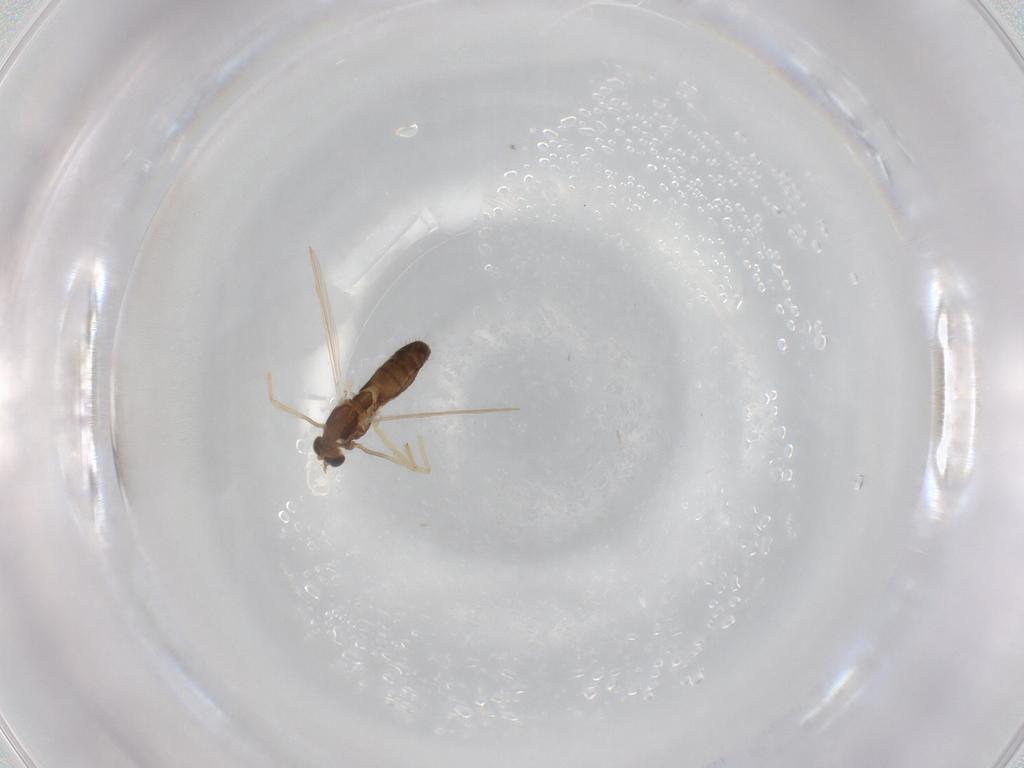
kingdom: Animalia
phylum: Arthropoda
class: Insecta
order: Diptera
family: Chironomidae
